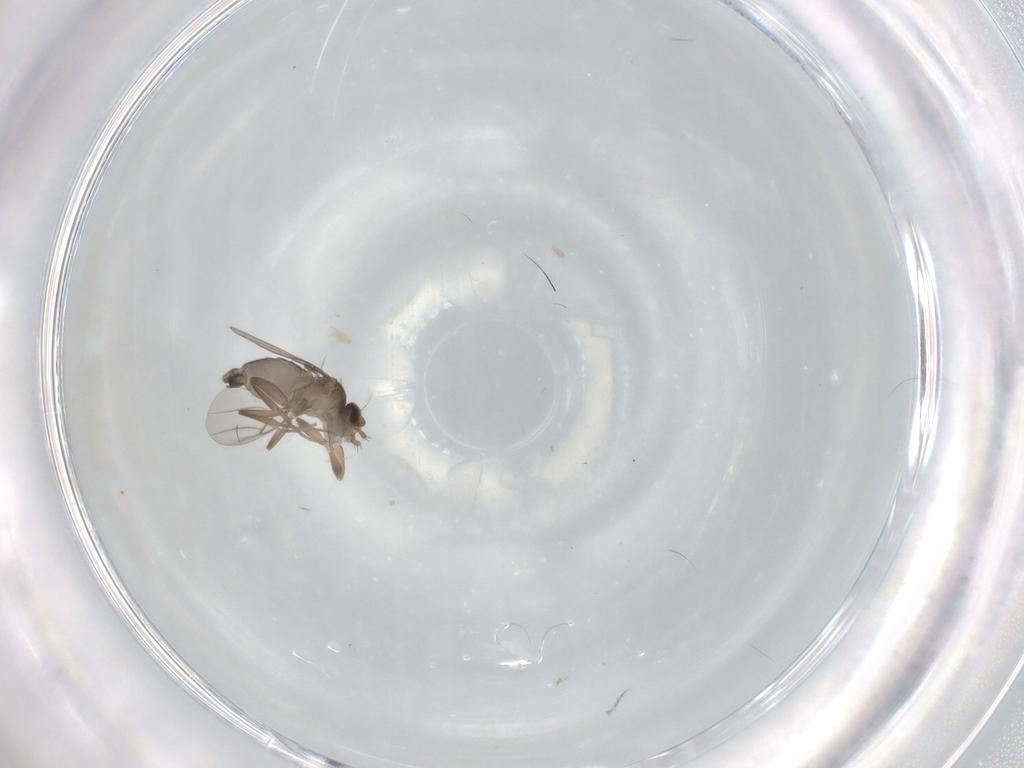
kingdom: Animalia
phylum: Arthropoda
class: Insecta
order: Diptera
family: Phoridae
